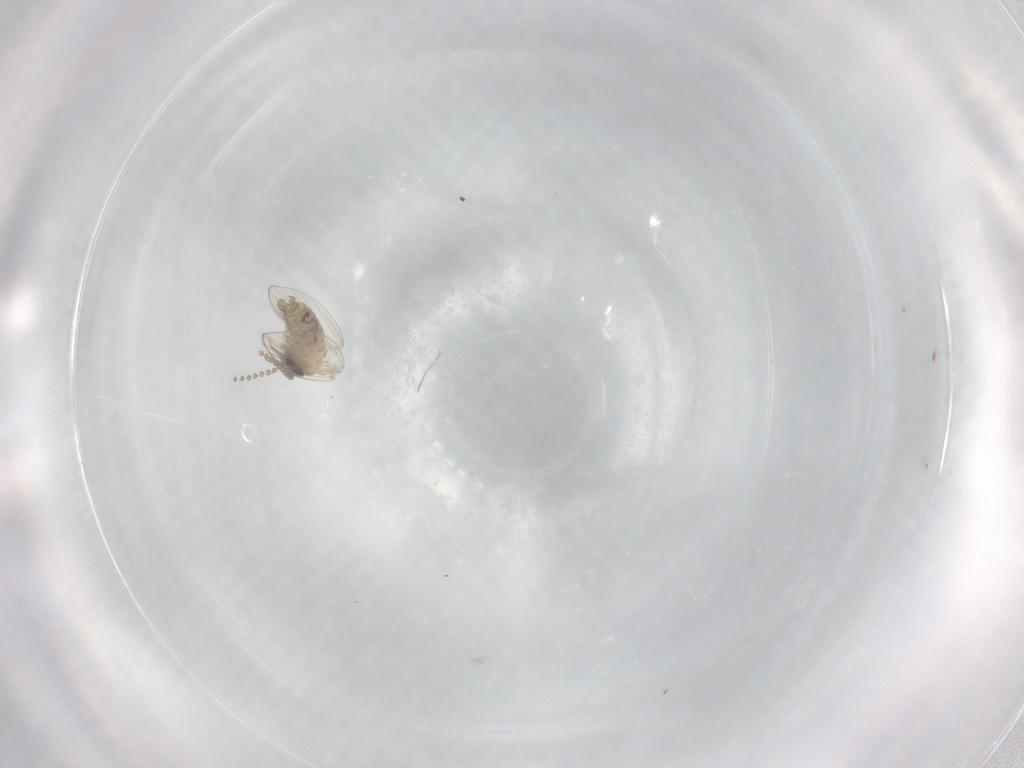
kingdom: Animalia
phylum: Arthropoda
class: Insecta
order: Diptera
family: Psychodidae
